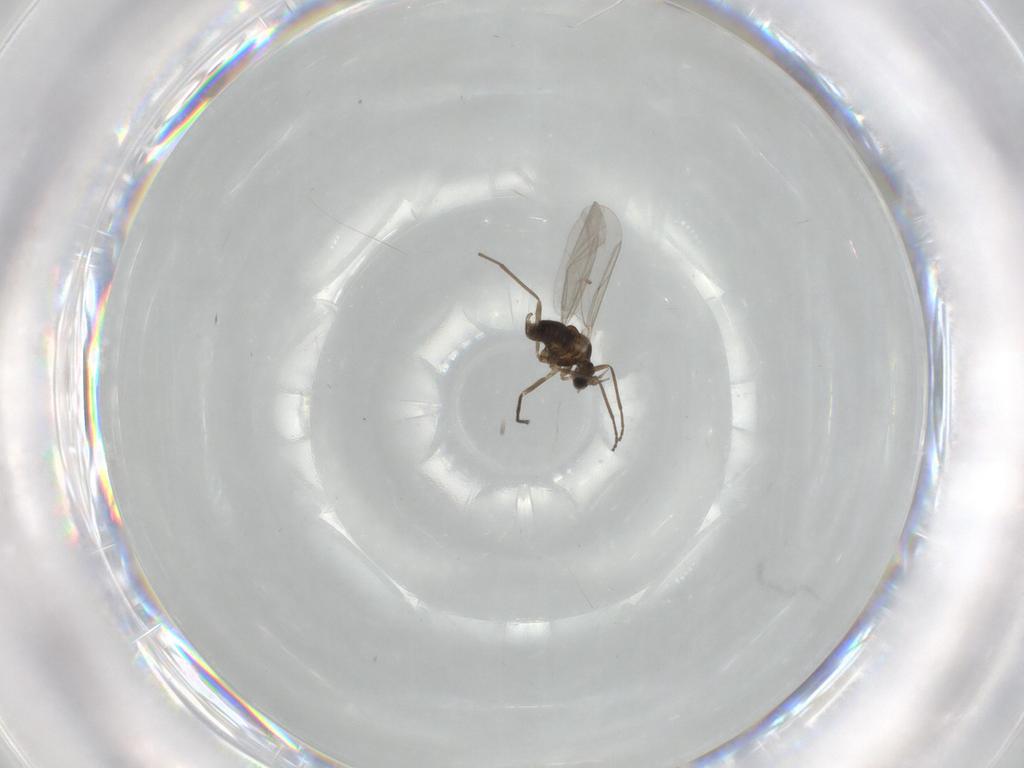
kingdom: Animalia
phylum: Arthropoda
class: Insecta
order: Diptera
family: Cecidomyiidae
